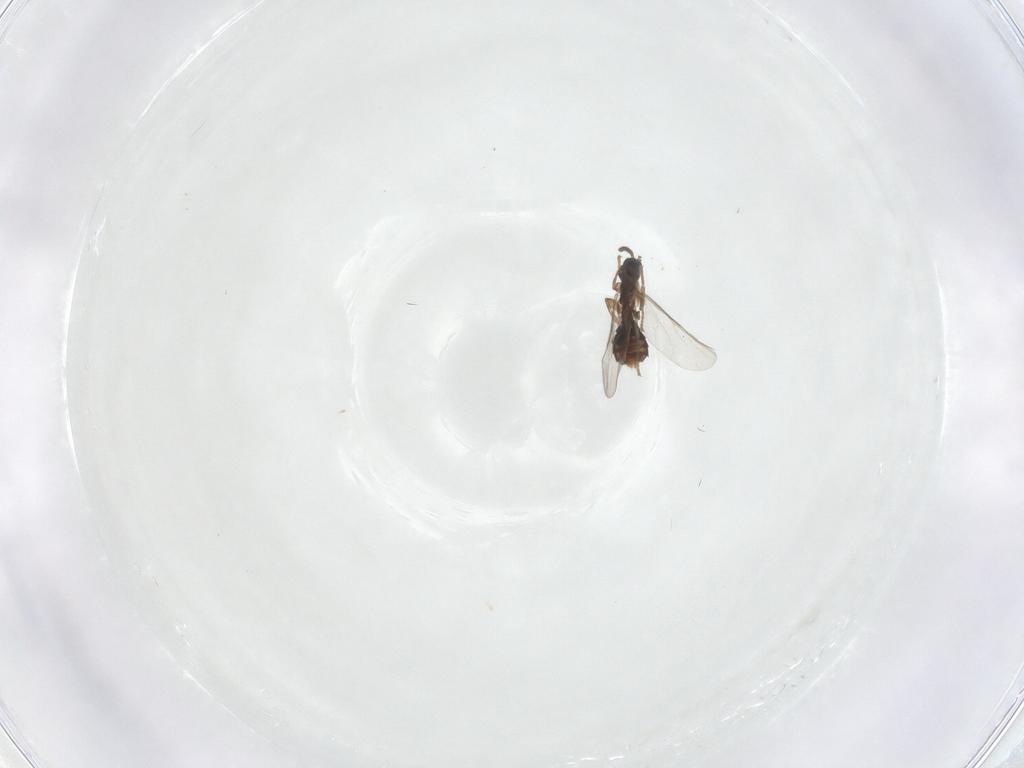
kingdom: Animalia
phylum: Arthropoda
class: Insecta
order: Diptera
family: Scatopsidae
